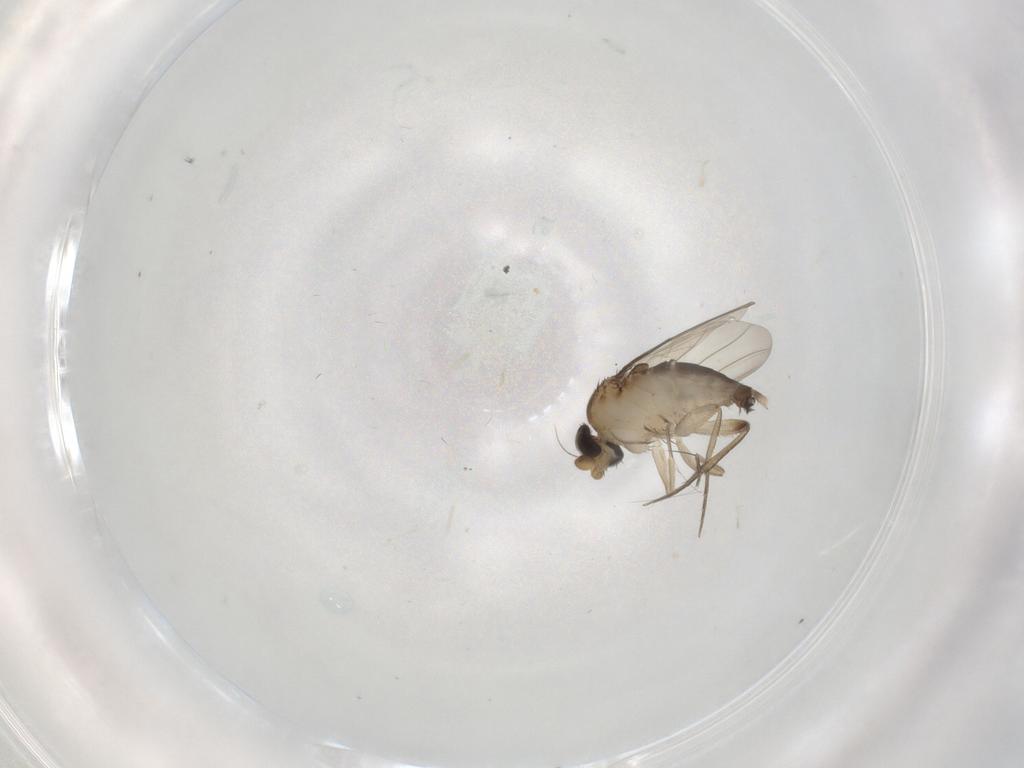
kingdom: Animalia
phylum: Arthropoda
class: Insecta
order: Diptera
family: Phoridae
